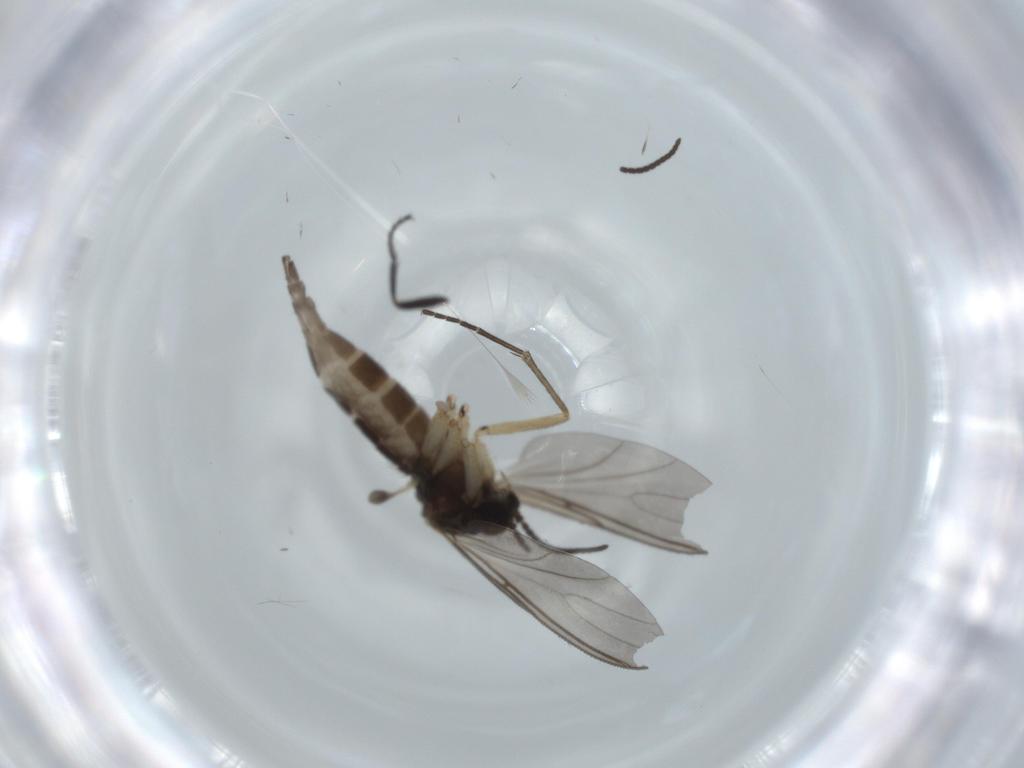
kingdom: Animalia
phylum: Arthropoda
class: Insecta
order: Diptera
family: Sciaridae
